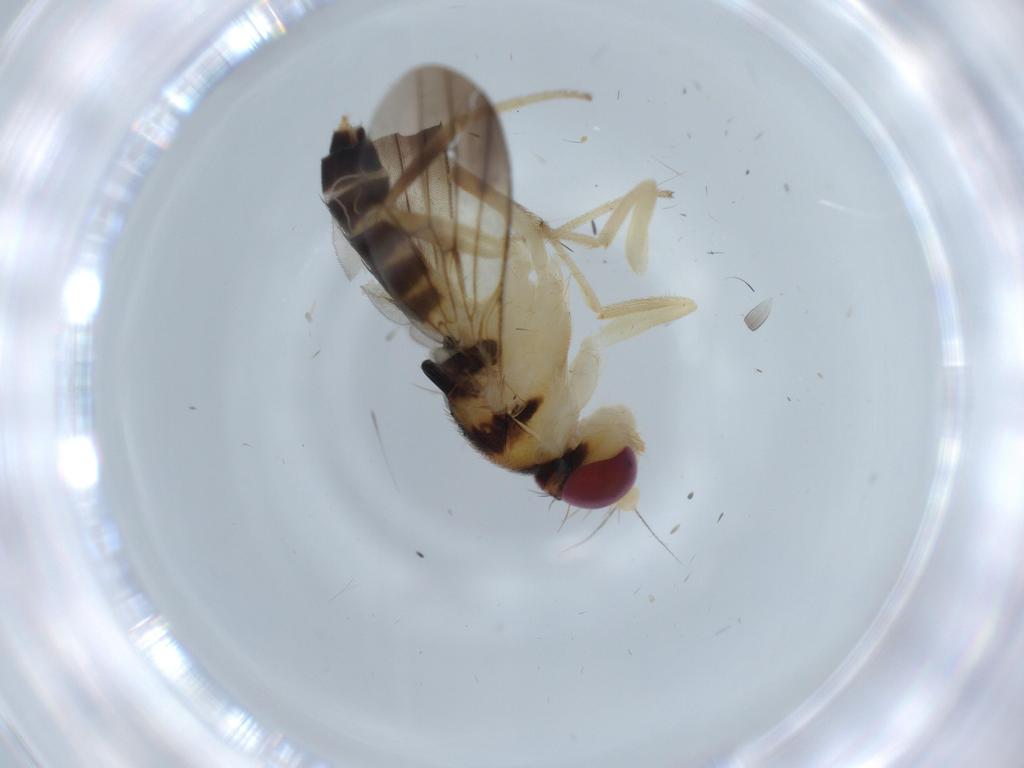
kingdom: Animalia
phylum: Arthropoda
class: Insecta
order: Diptera
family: Clusiidae
